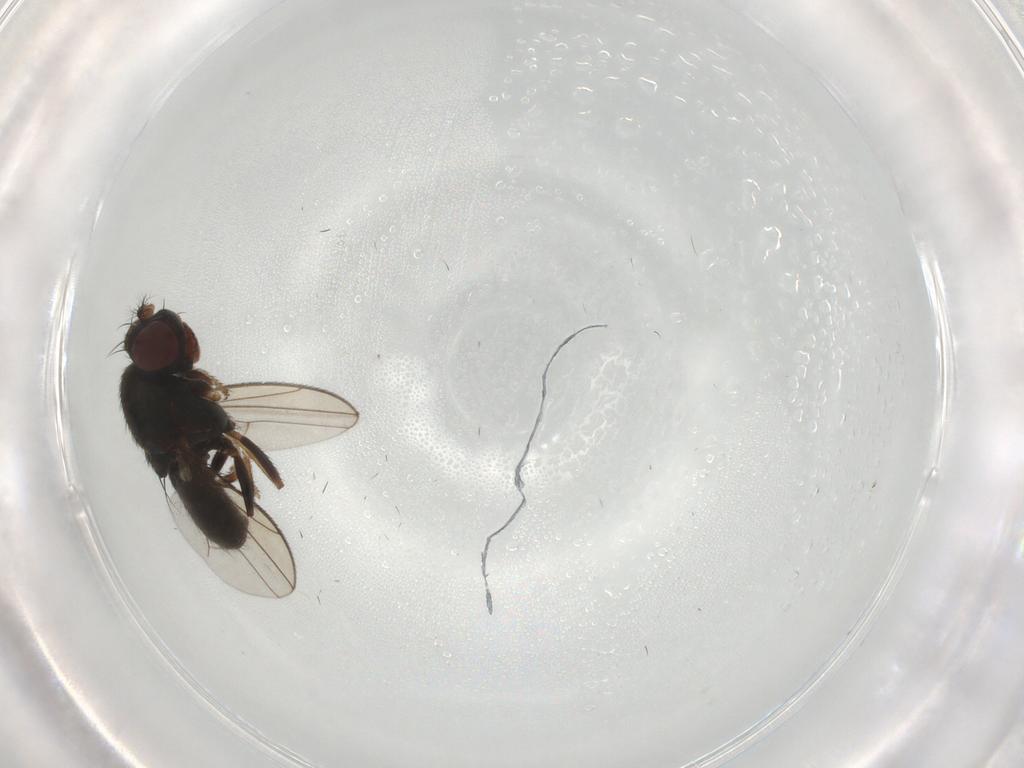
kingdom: Animalia
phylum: Arthropoda
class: Insecta
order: Diptera
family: Ephydridae
